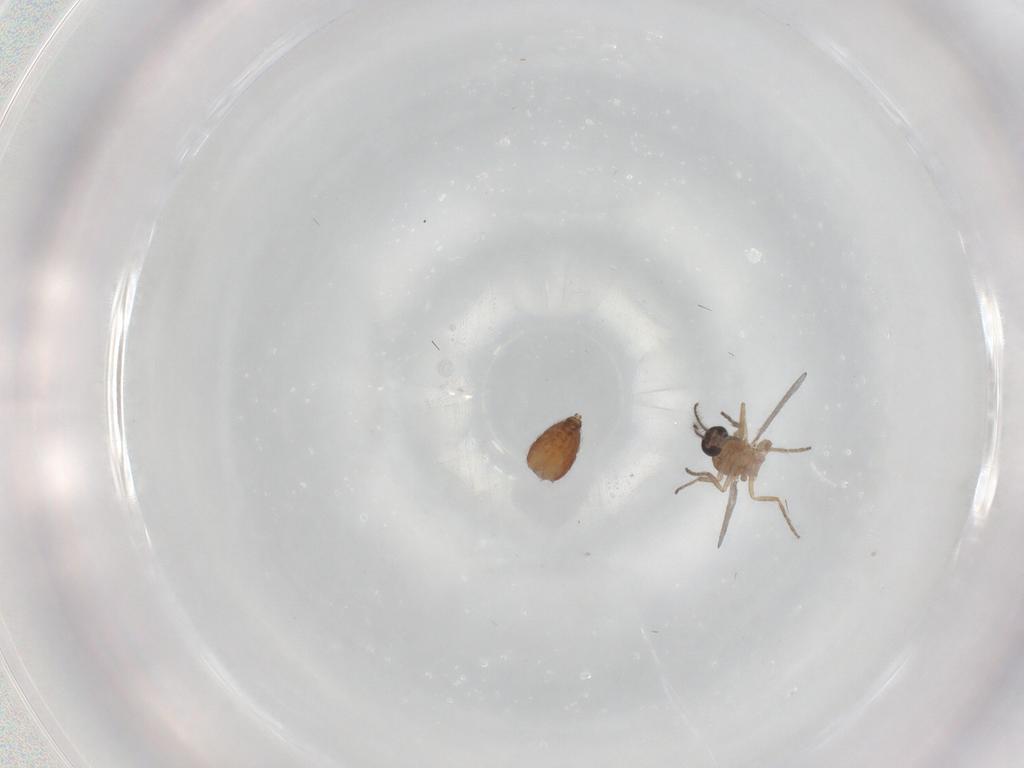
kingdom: Animalia
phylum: Arthropoda
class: Insecta
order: Diptera
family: Ceratopogonidae
